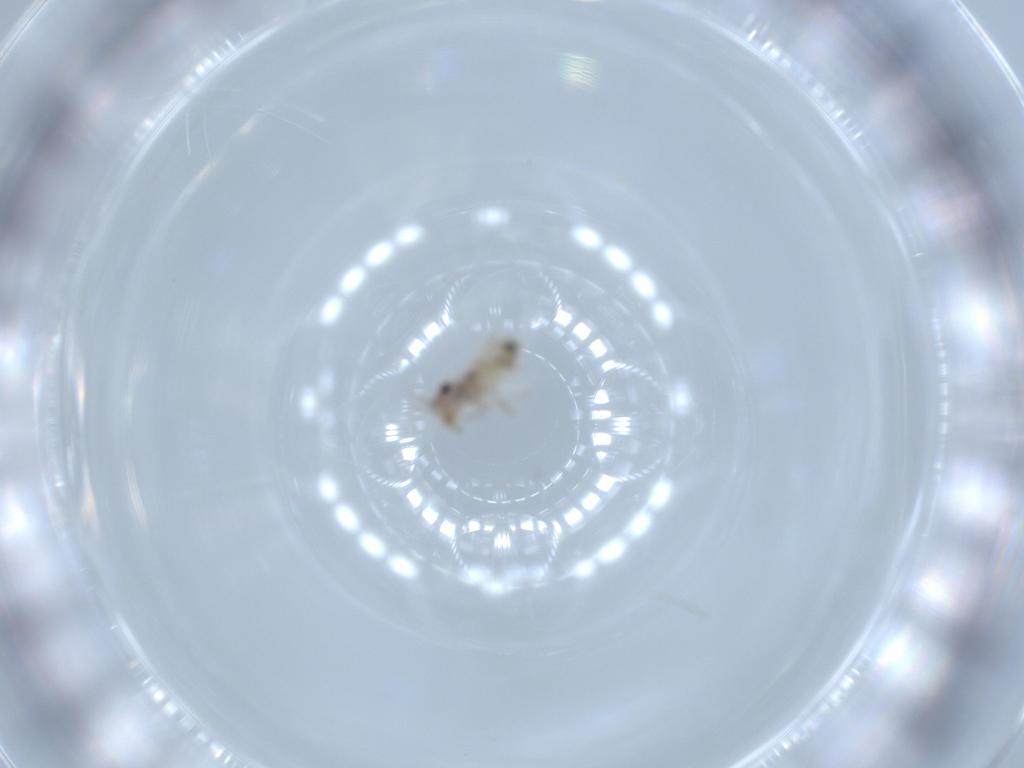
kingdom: Animalia
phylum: Arthropoda
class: Insecta
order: Psocodea
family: Lepidopsocidae
